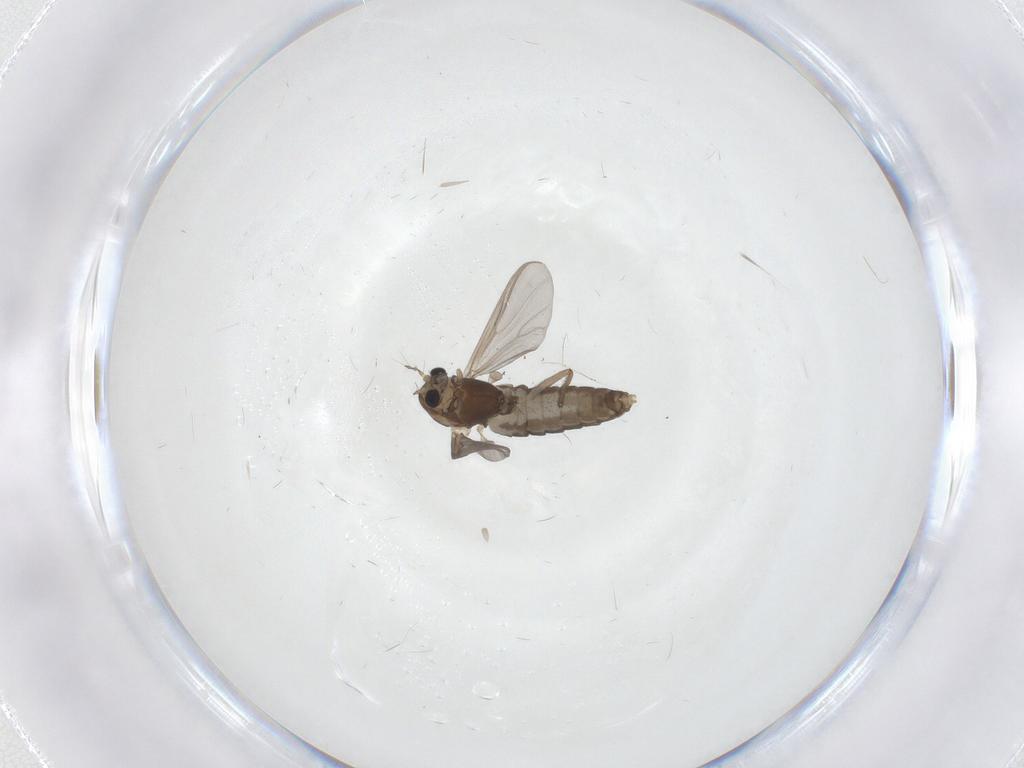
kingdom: Animalia
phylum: Arthropoda
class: Insecta
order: Diptera
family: Chironomidae
